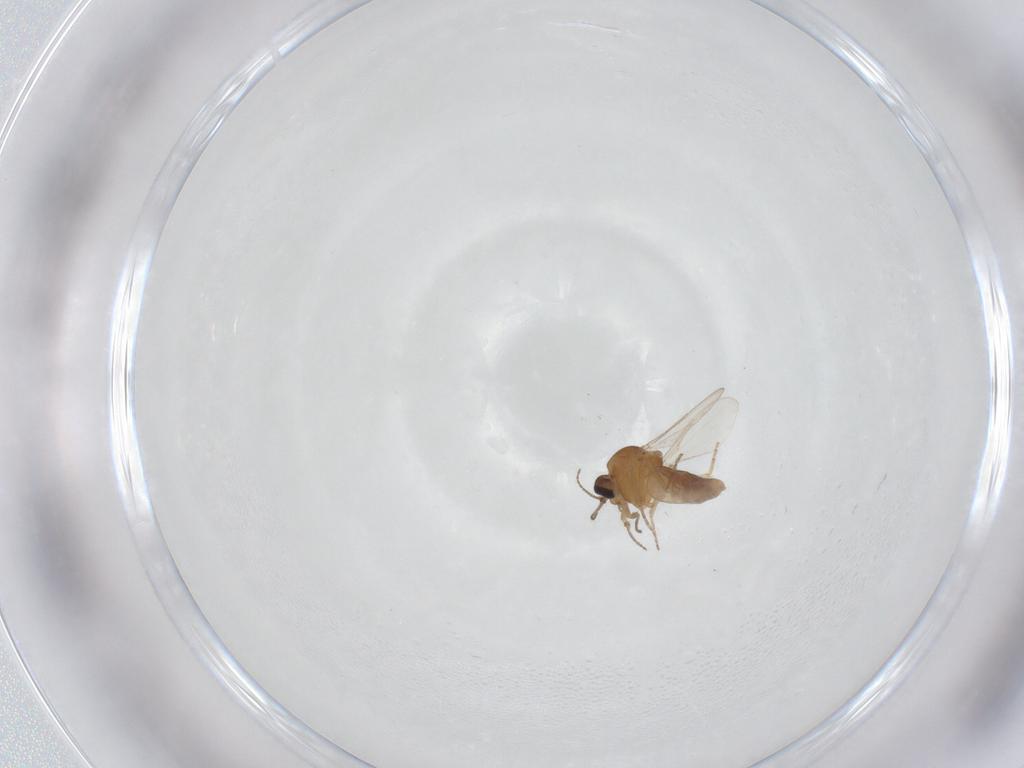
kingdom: Animalia
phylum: Arthropoda
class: Insecta
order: Diptera
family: Ceratopogonidae
